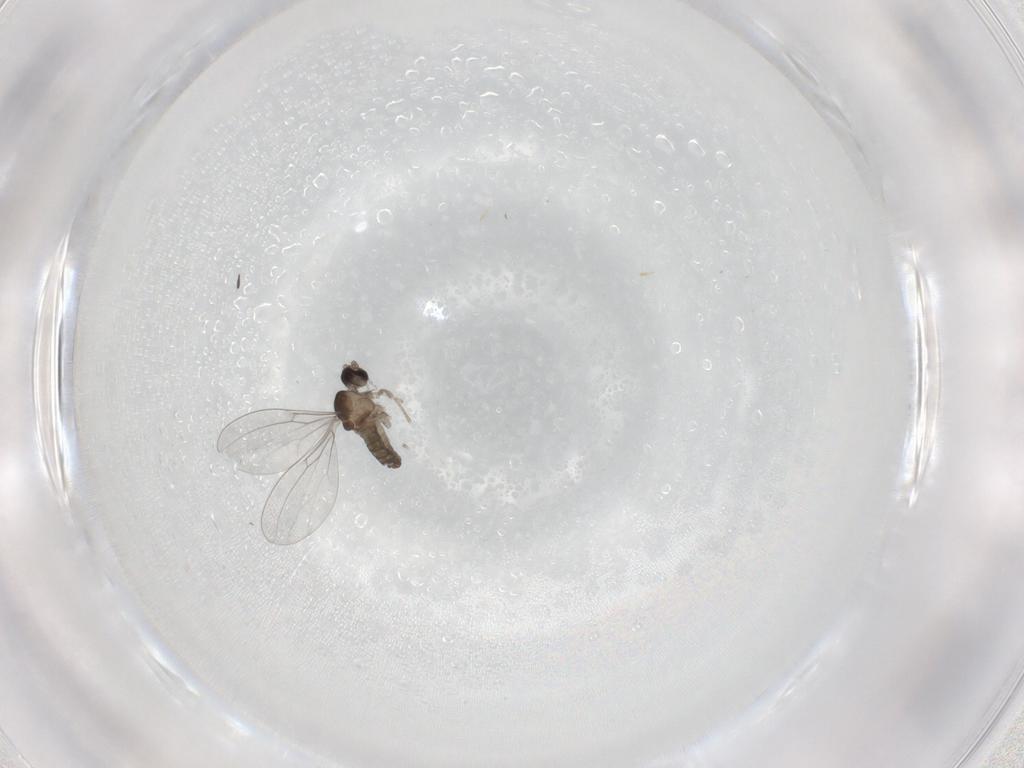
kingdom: Animalia
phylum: Arthropoda
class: Insecta
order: Diptera
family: Sciaridae
